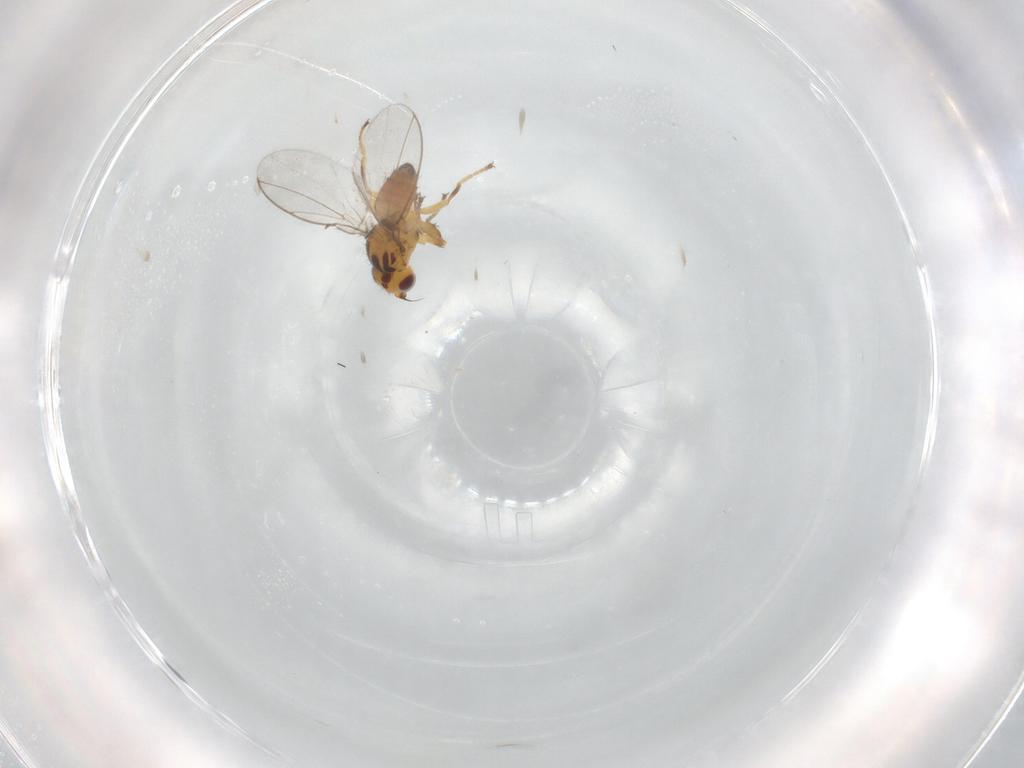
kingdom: Animalia
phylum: Arthropoda
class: Insecta
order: Diptera
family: Chloropidae
